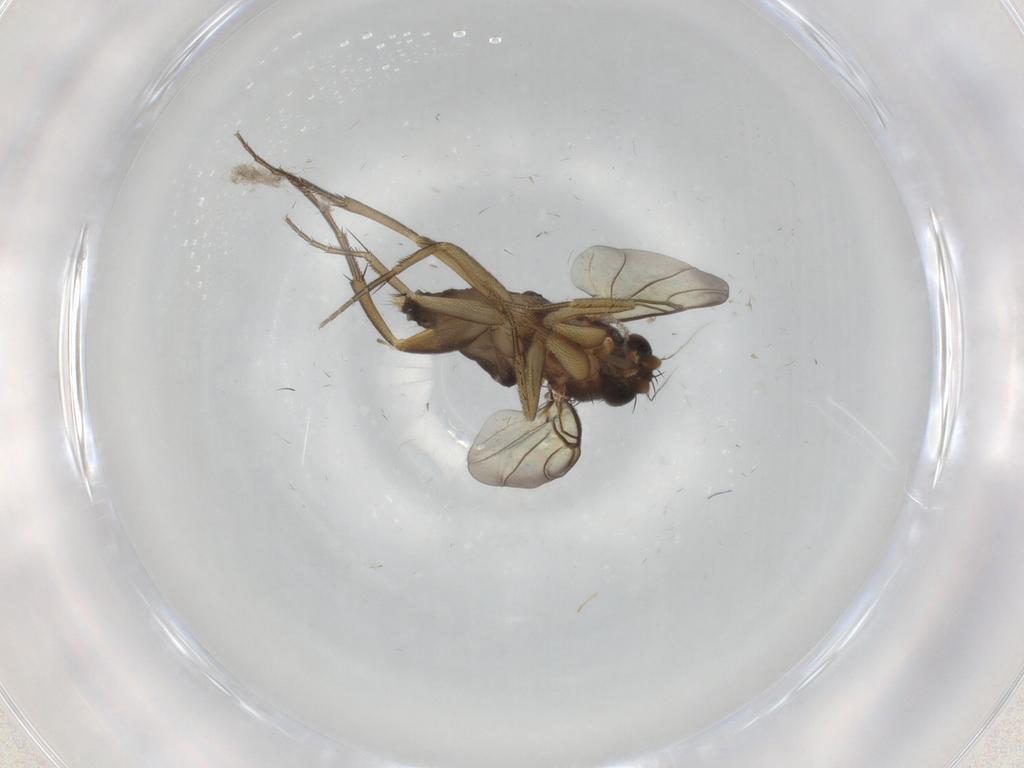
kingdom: Animalia
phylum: Arthropoda
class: Insecta
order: Diptera
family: Phoridae
